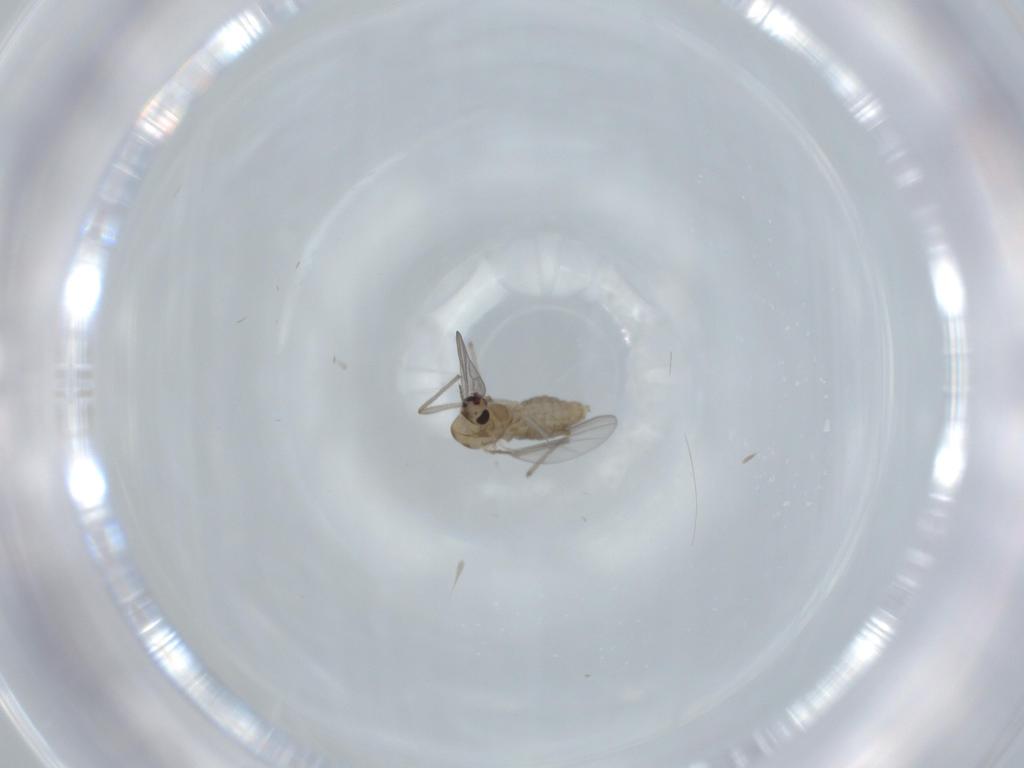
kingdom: Animalia
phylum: Arthropoda
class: Insecta
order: Diptera
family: Chironomidae
